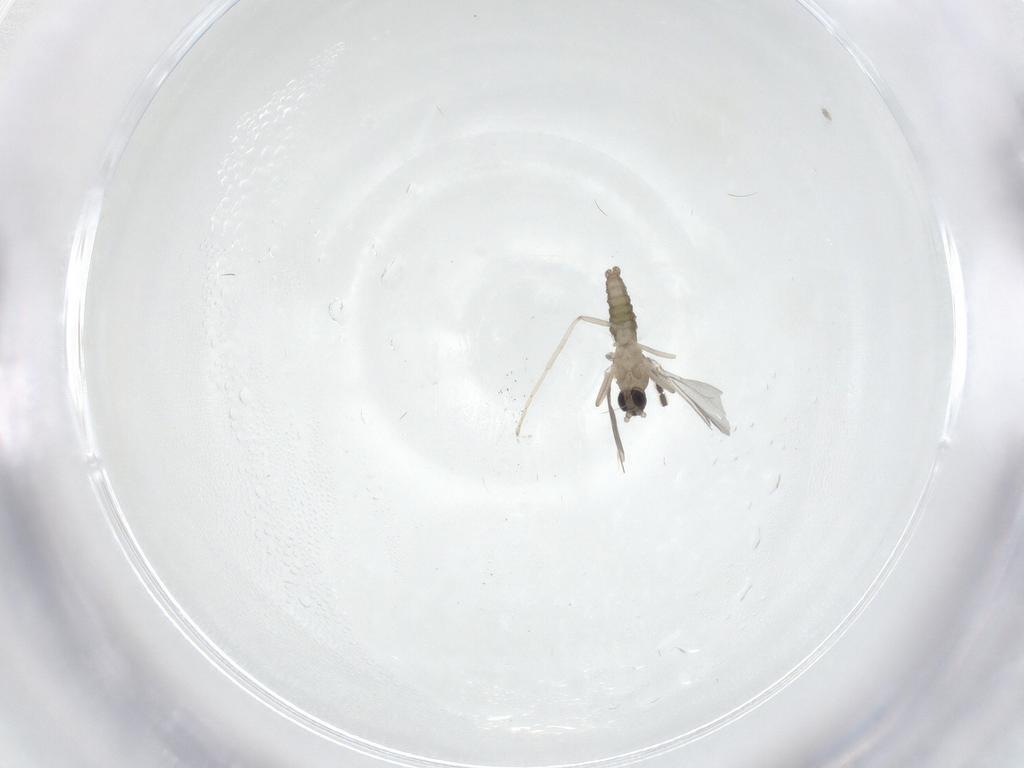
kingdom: Animalia
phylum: Arthropoda
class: Insecta
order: Diptera
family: Cecidomyiidae
